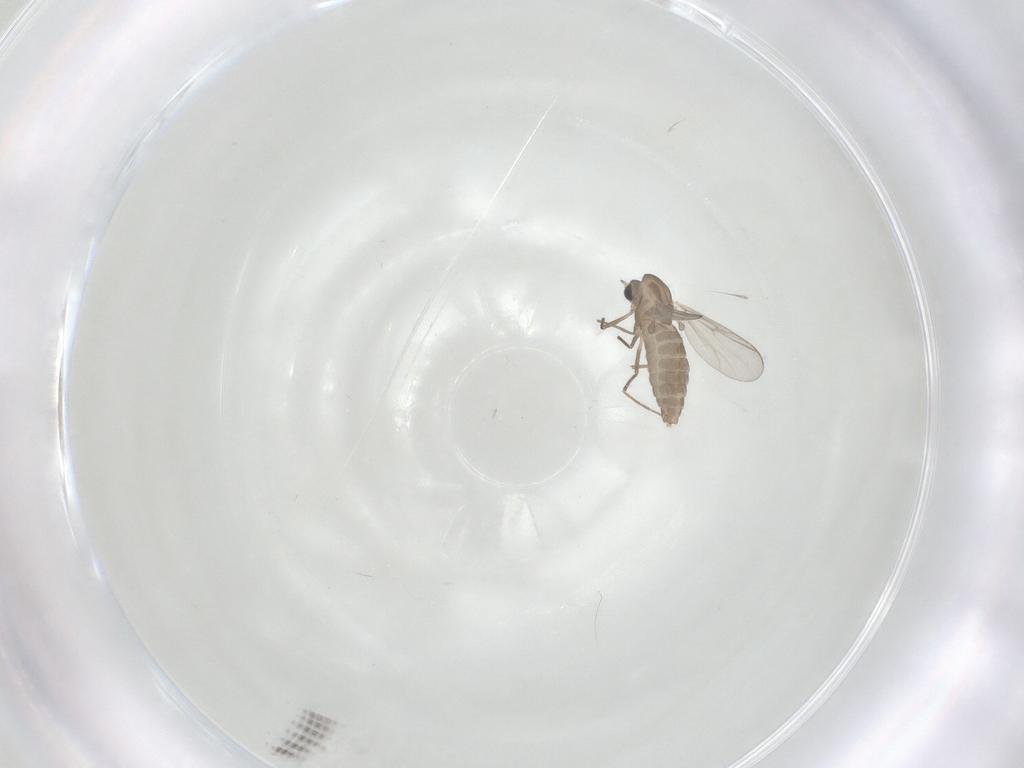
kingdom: Animalia
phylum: Arthropoda
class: Insecta
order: Diptera
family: Chironomidae
